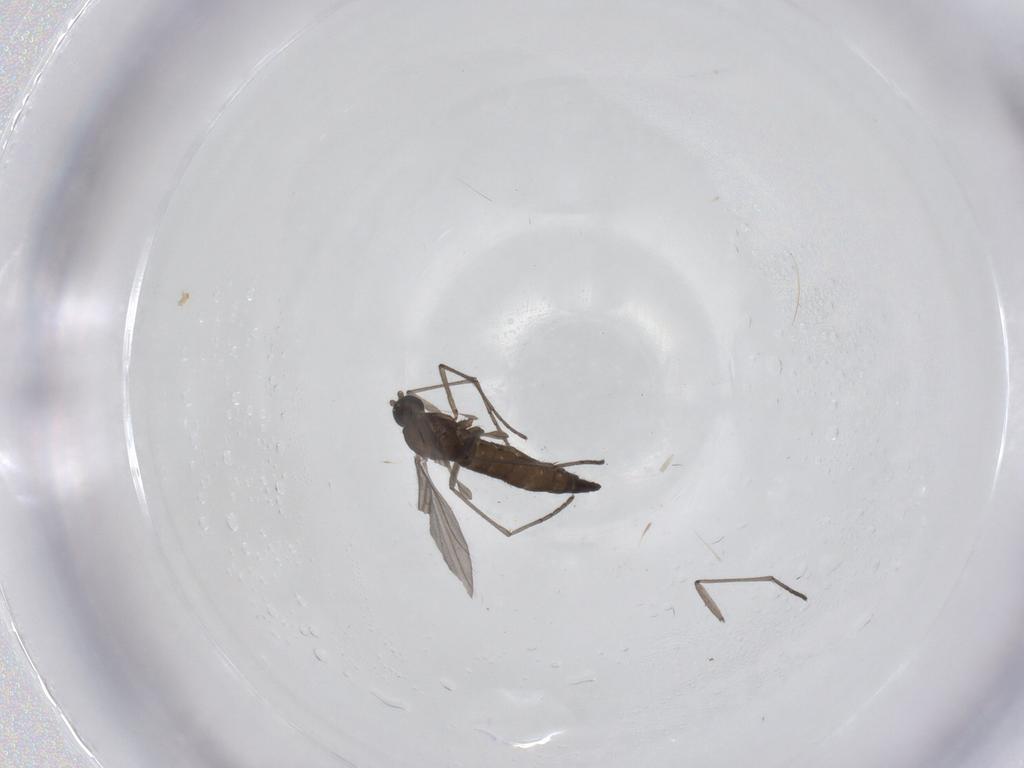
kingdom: Animalia
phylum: Arthropoda
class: Insecta
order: Diptera
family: Sciaridae
